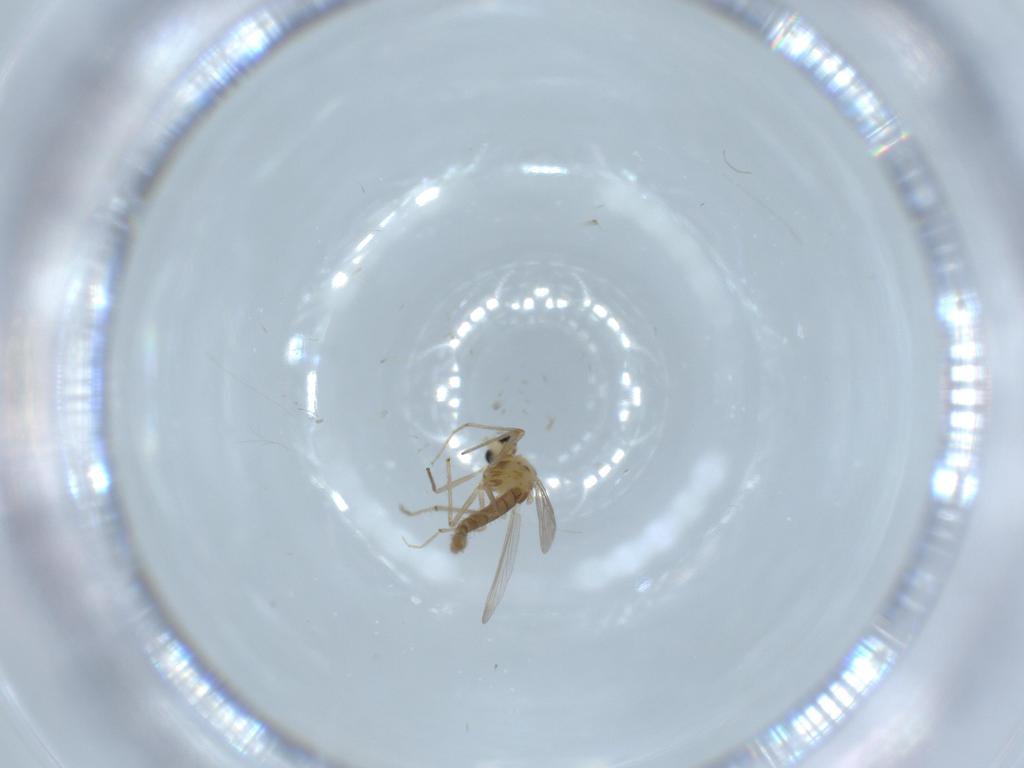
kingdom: Animalia
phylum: Arthropoda
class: Insecta
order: Diptera
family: Chironomidae
